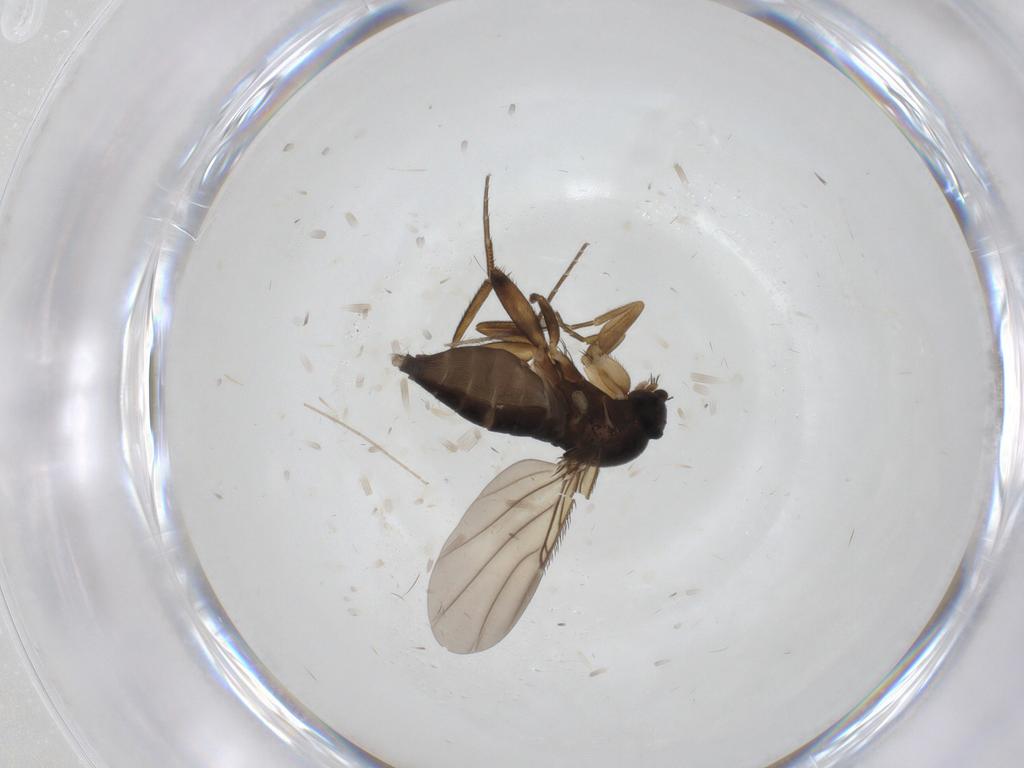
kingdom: Animalia
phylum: Arthropoda
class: Insecta
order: Diptera
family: Phoridae
